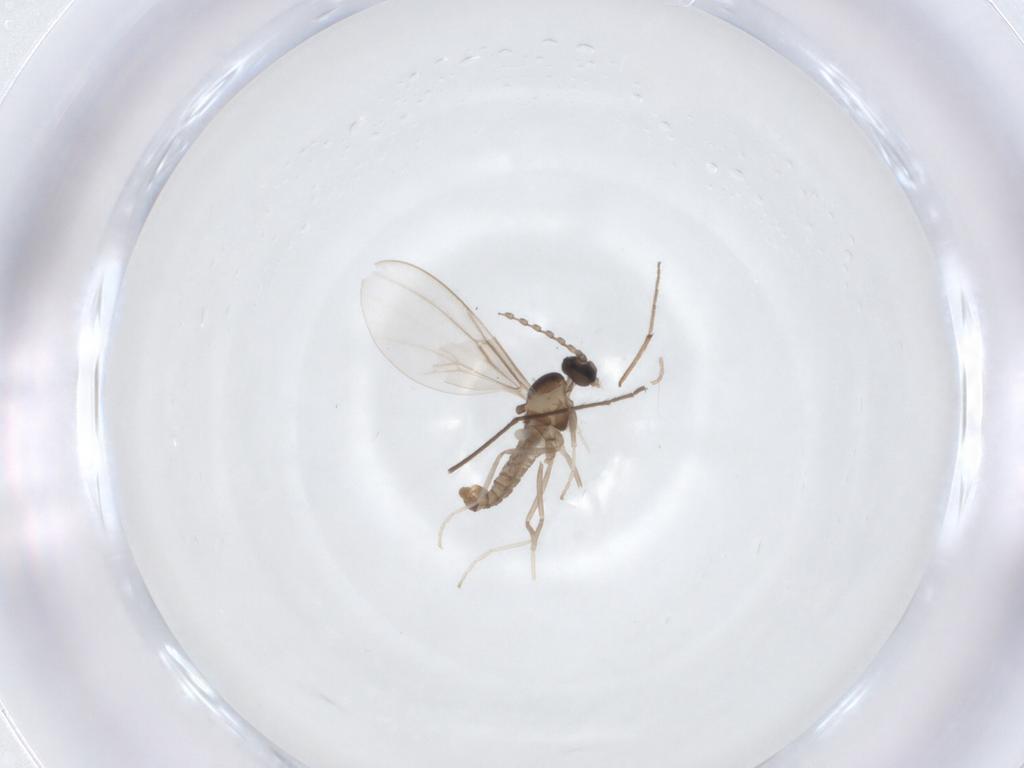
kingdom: Animalia
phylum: Arthropoda
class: Insecta
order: Diptera
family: Cecidomyiidae
